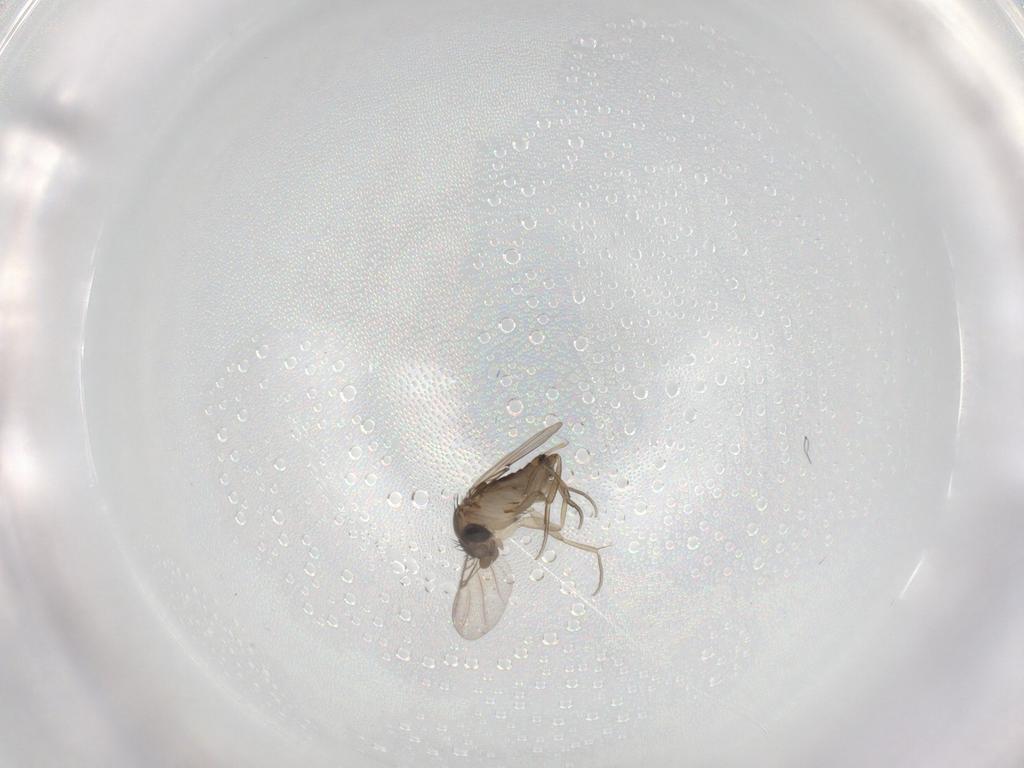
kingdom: Animalia
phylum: Arthropoda
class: Insecta
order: Diptera
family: Phoridae
